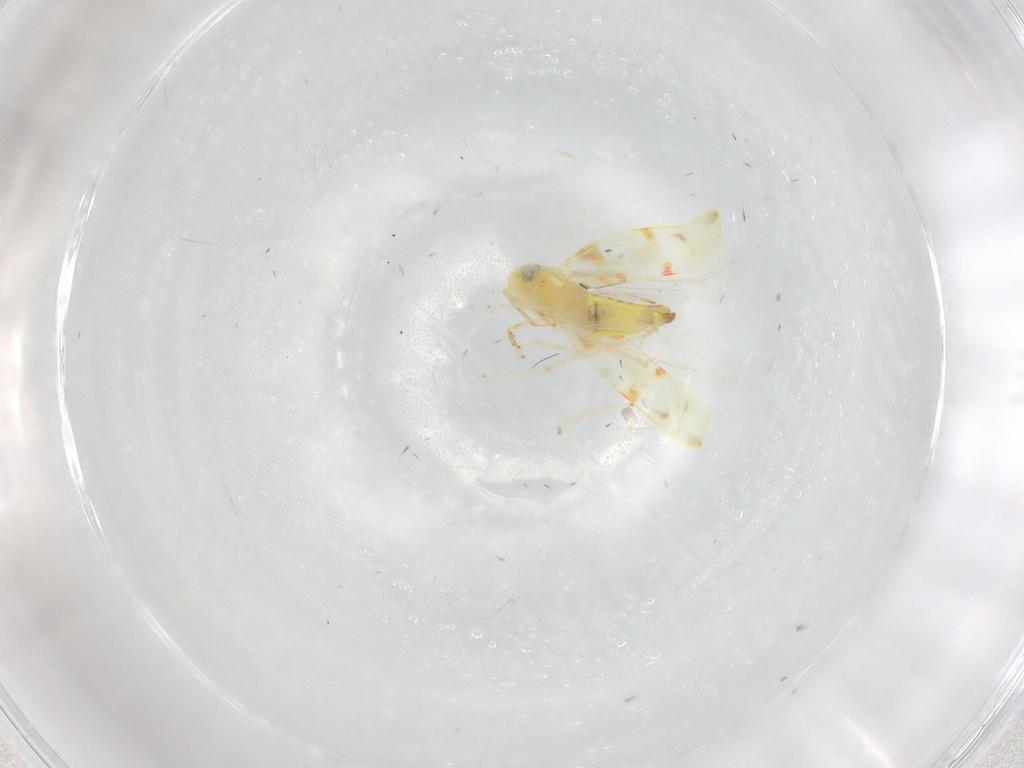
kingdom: Animalia
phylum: Arthropoda
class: Insecta
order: Hemiptera
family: Cicadellidae
